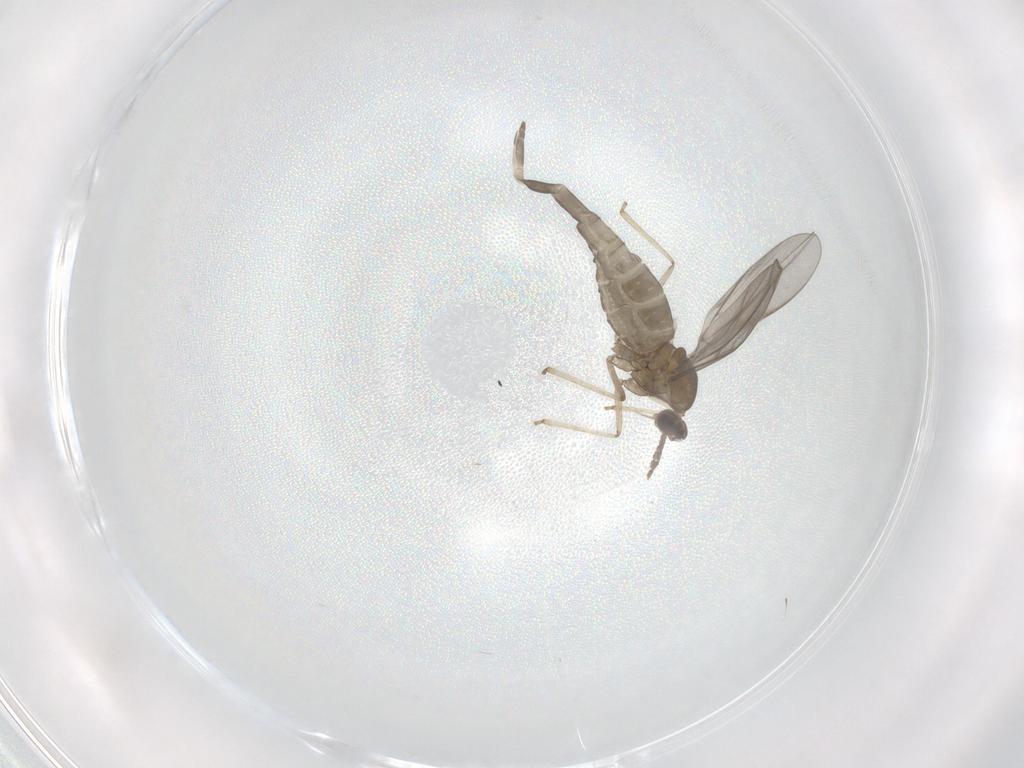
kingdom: Animalia
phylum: Arthropoda
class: Insecta
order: Diptera
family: Cecidomyiidae
